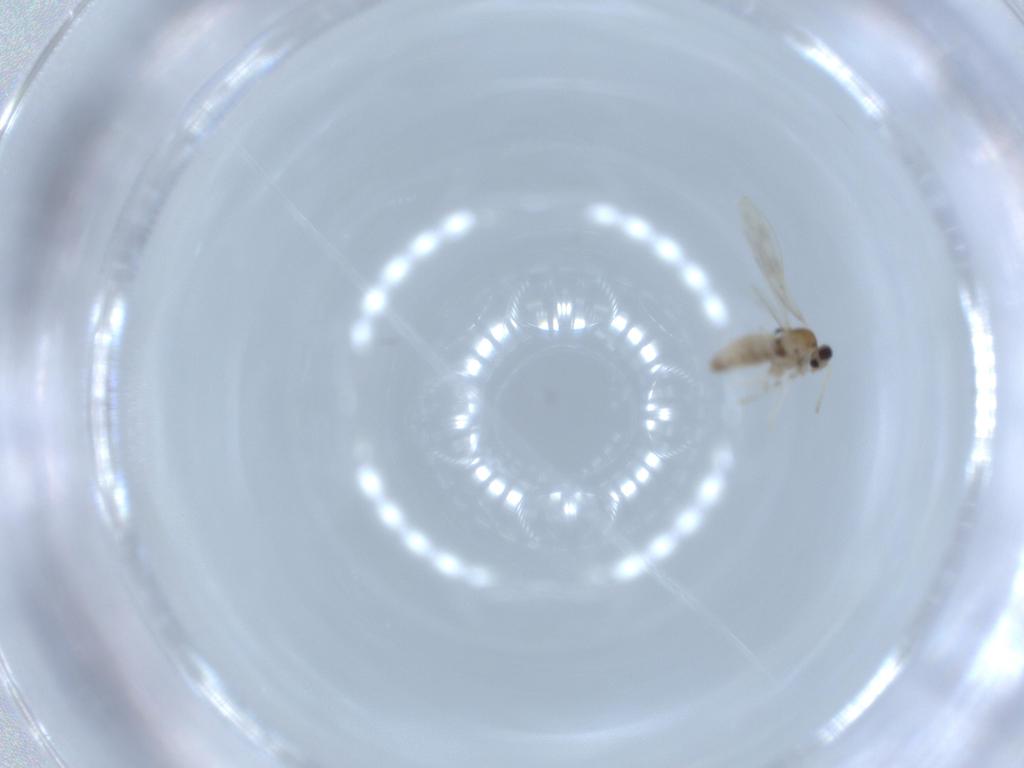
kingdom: Animalia
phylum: Arthropoda
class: Insecta
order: Diptera
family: Cecidomyiidae
